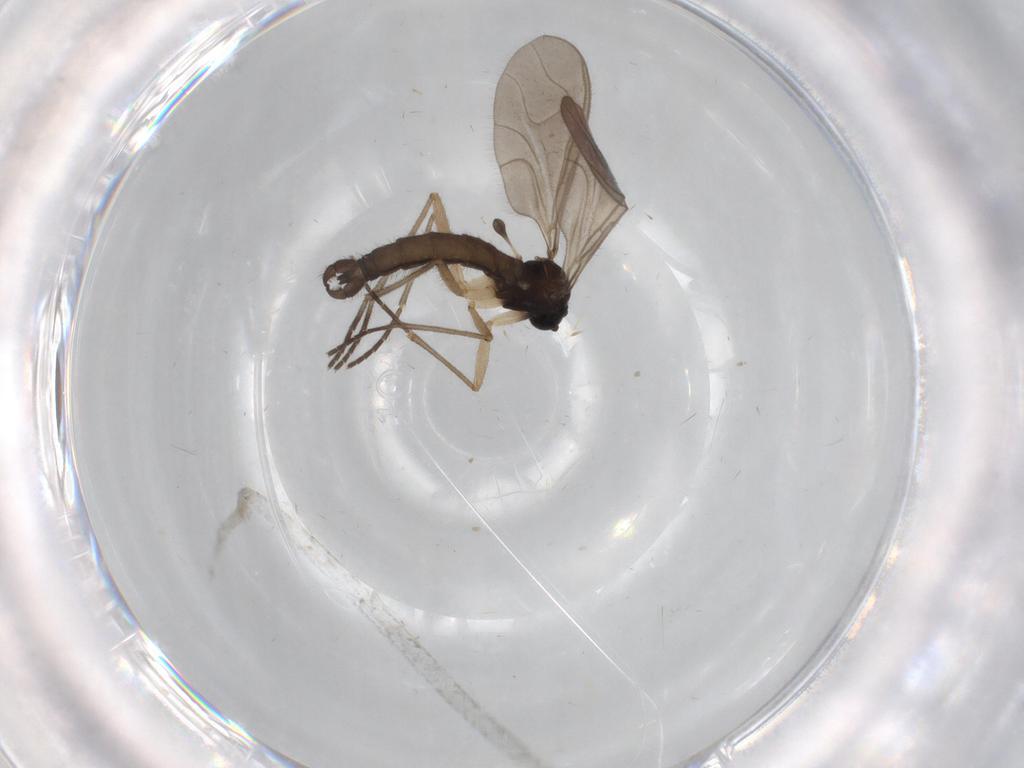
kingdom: Animalia
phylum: Arthropoda
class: Insecta
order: Diptera
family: Sciaridae
